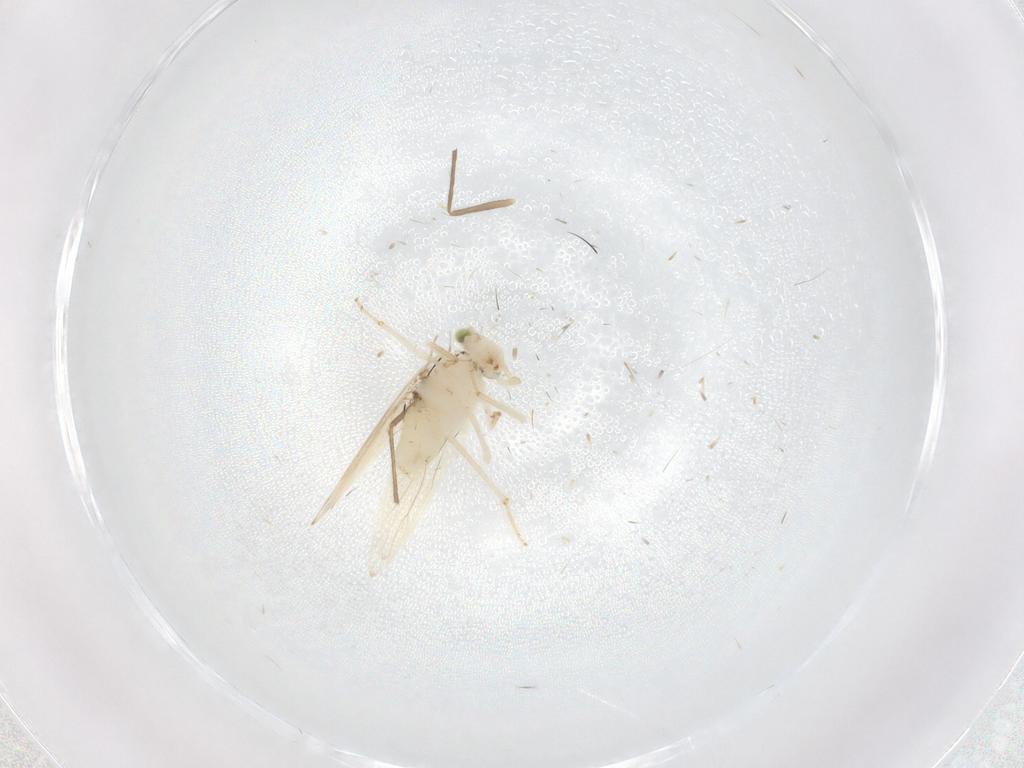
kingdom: Animalia
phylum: Arthropoda
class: Insecta
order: Psocodea
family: Lepidopsocidae
